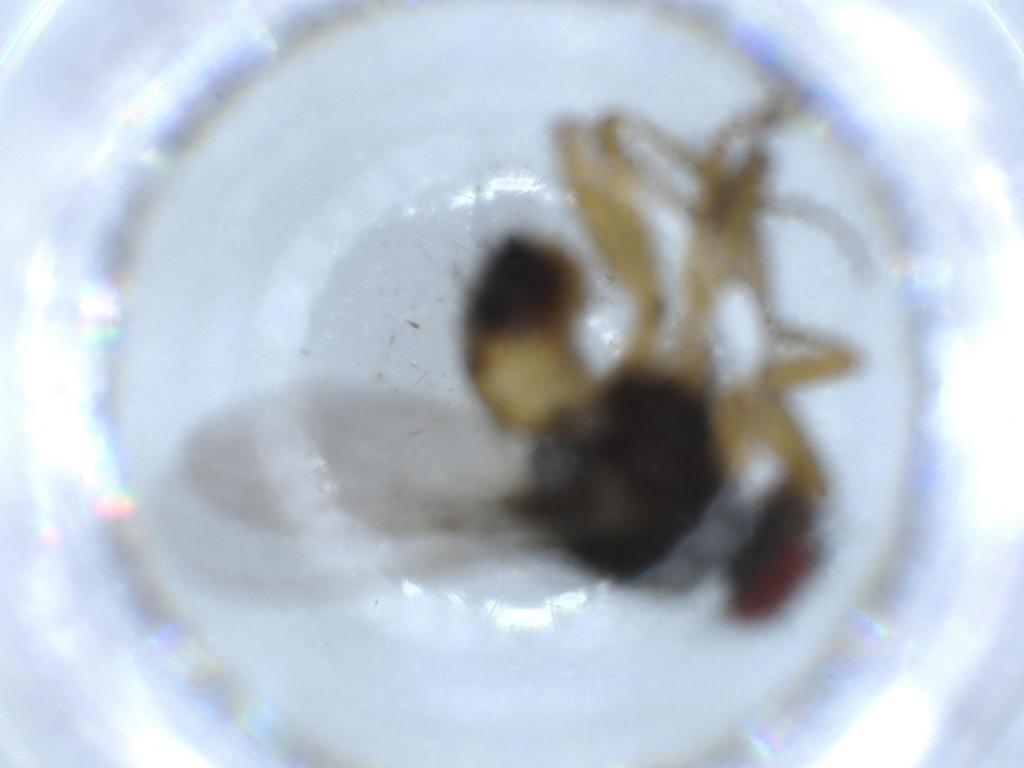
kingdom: Animalia
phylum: Arthropoda
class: Insecta
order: Diptera
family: Muscidae
